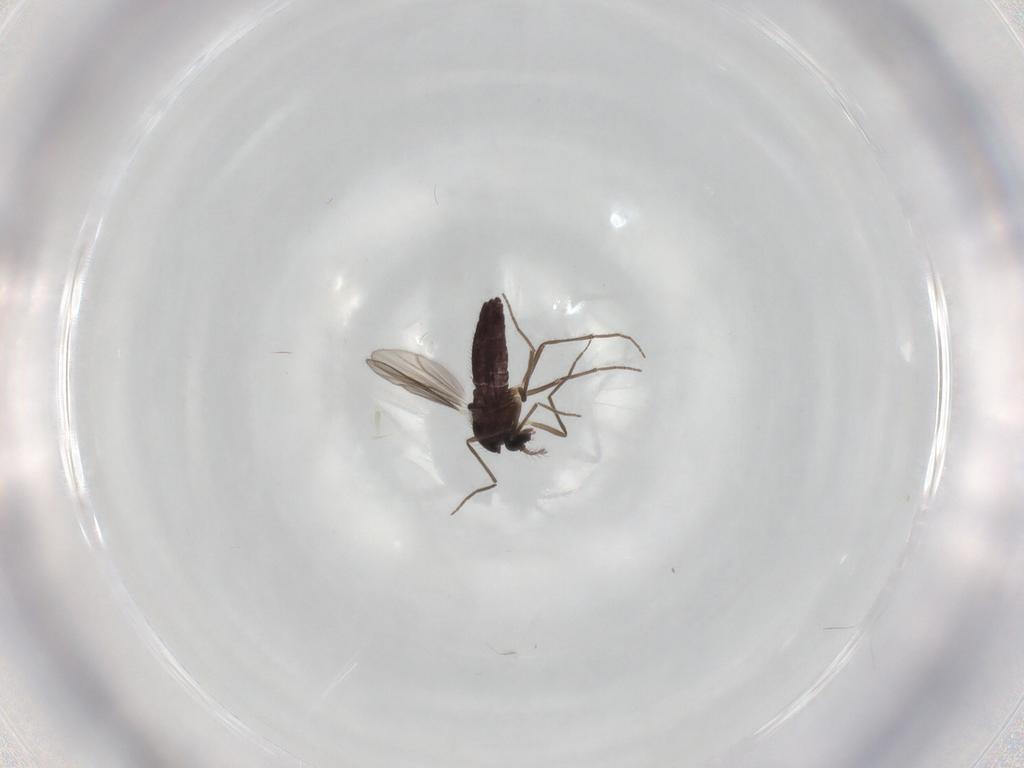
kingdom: Animalia
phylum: Arthropoda
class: Insecta
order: Diptera
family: Chironomidae
